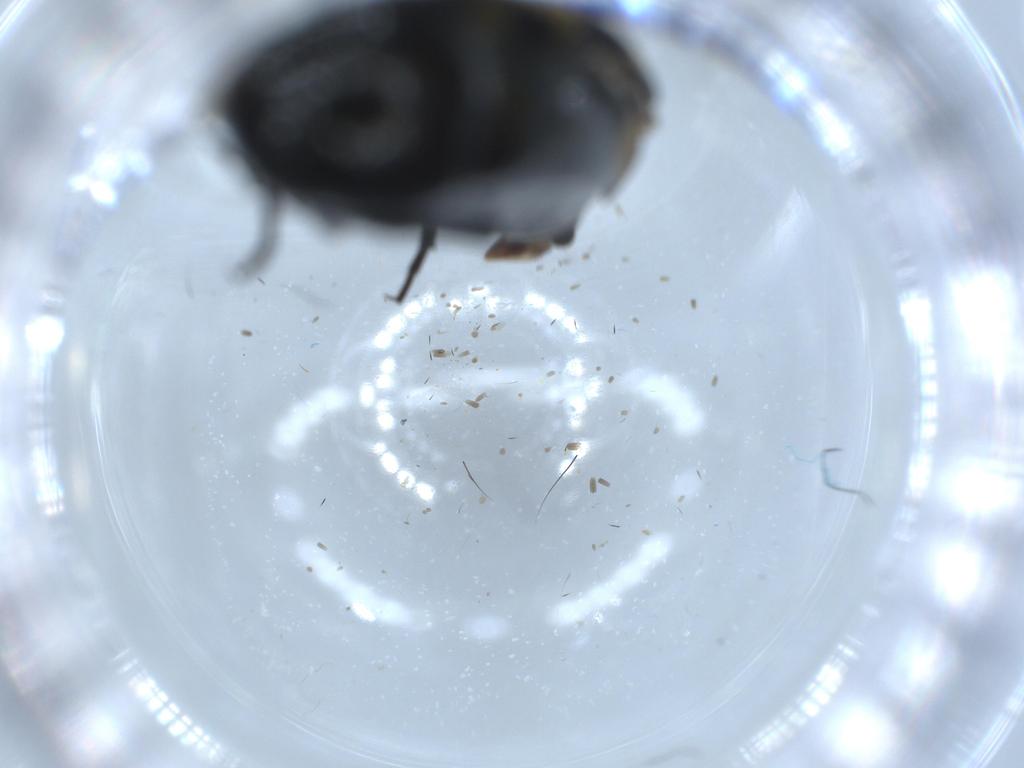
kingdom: Animalia
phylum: Arthropoda
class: Insecta
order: Coleoptera
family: Mordellidae
